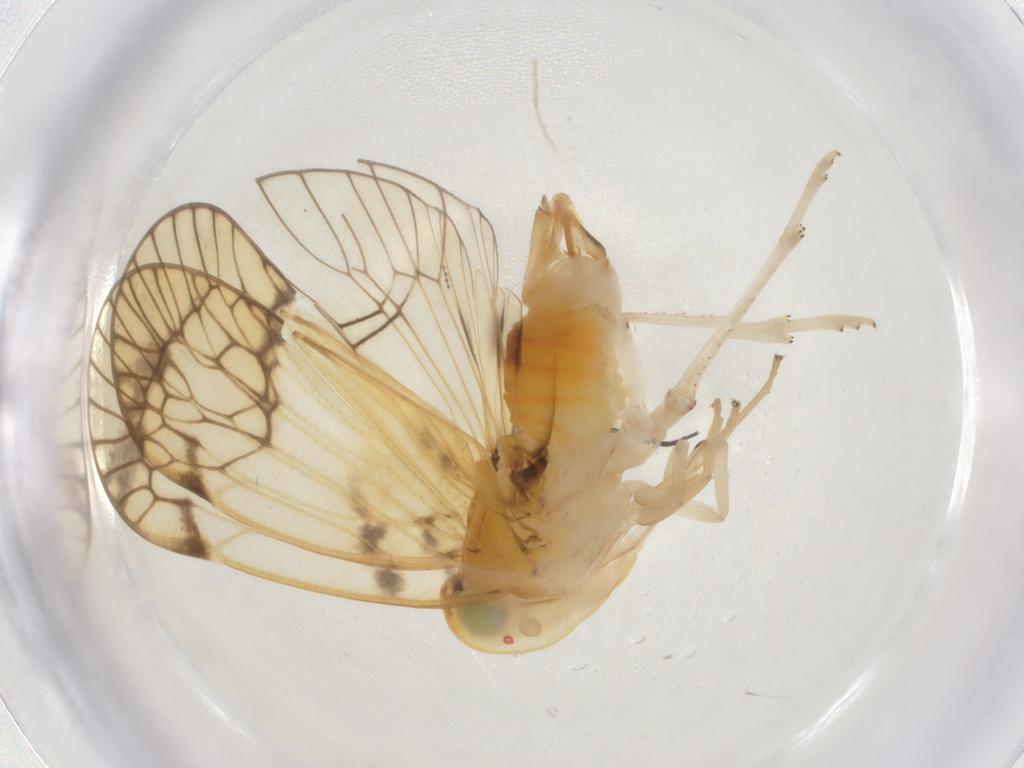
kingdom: Animalia
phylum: Arthropoda
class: Insecta
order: Hemiptera
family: Cixiidae
